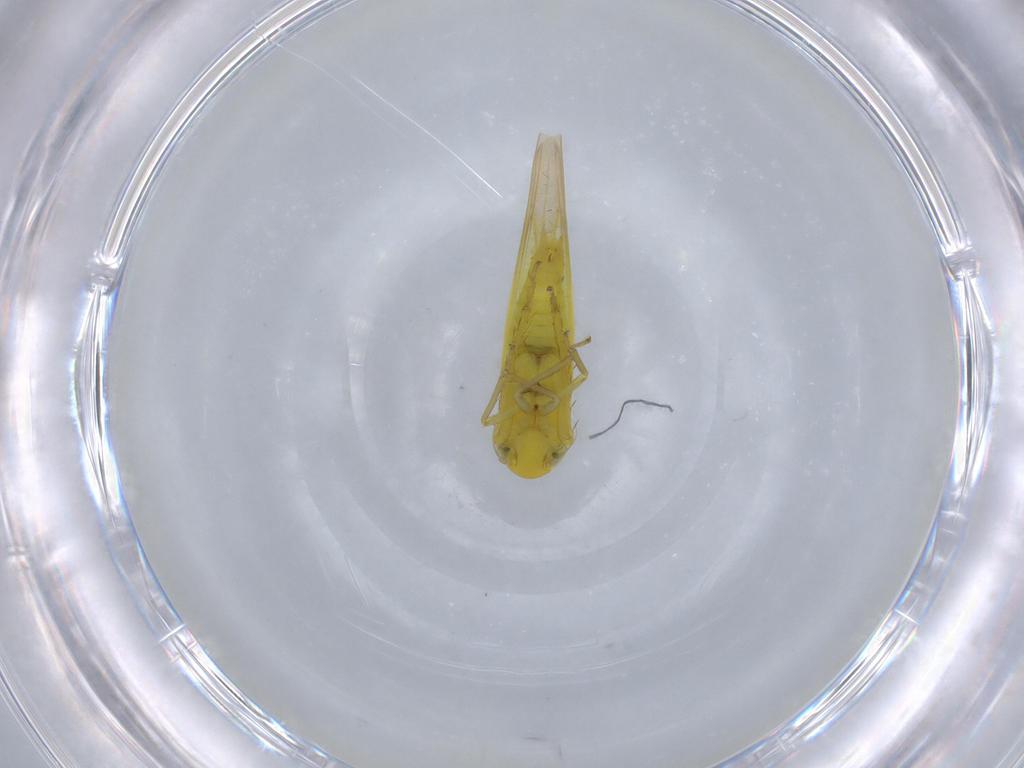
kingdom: Animalia
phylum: Arthropoda
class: Insecta
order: Hemiptera
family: Cicadellidae
